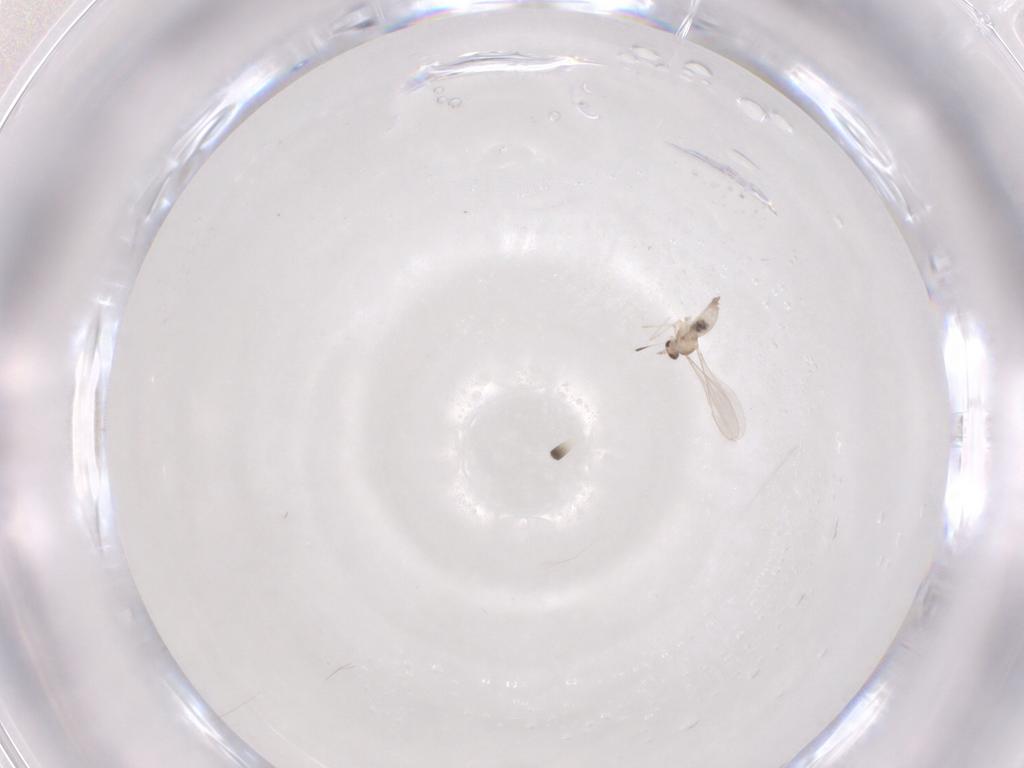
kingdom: Animalia
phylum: Arthropoda
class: Insecta
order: Diptera
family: Cecidomyiidae
